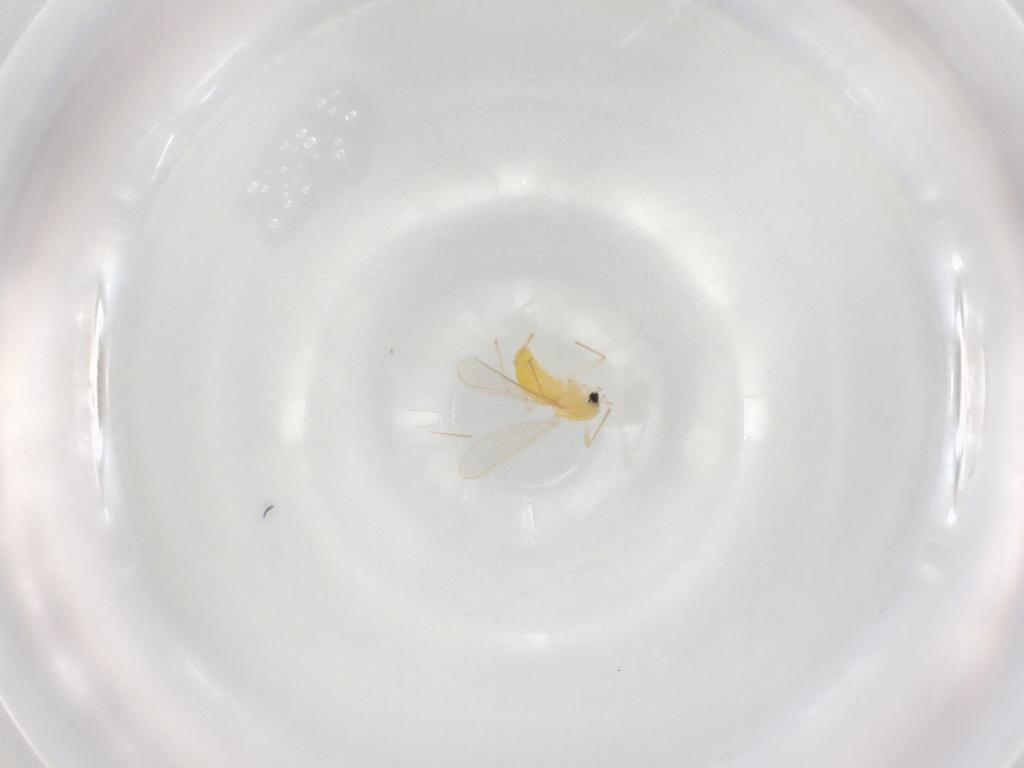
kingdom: Animalia
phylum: Arthropoda
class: Insecta
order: Diptera
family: Chironomidae
